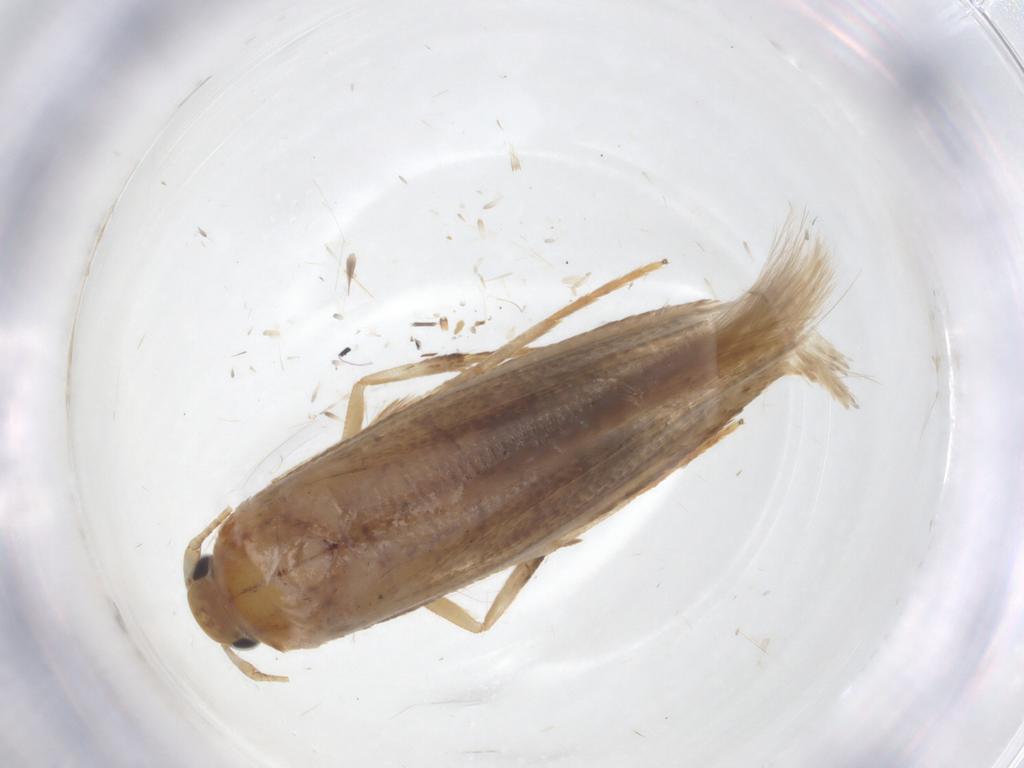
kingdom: Animalia
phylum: Arthropoda
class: Insecta
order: Lepidoptera
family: Stathmopodidae
